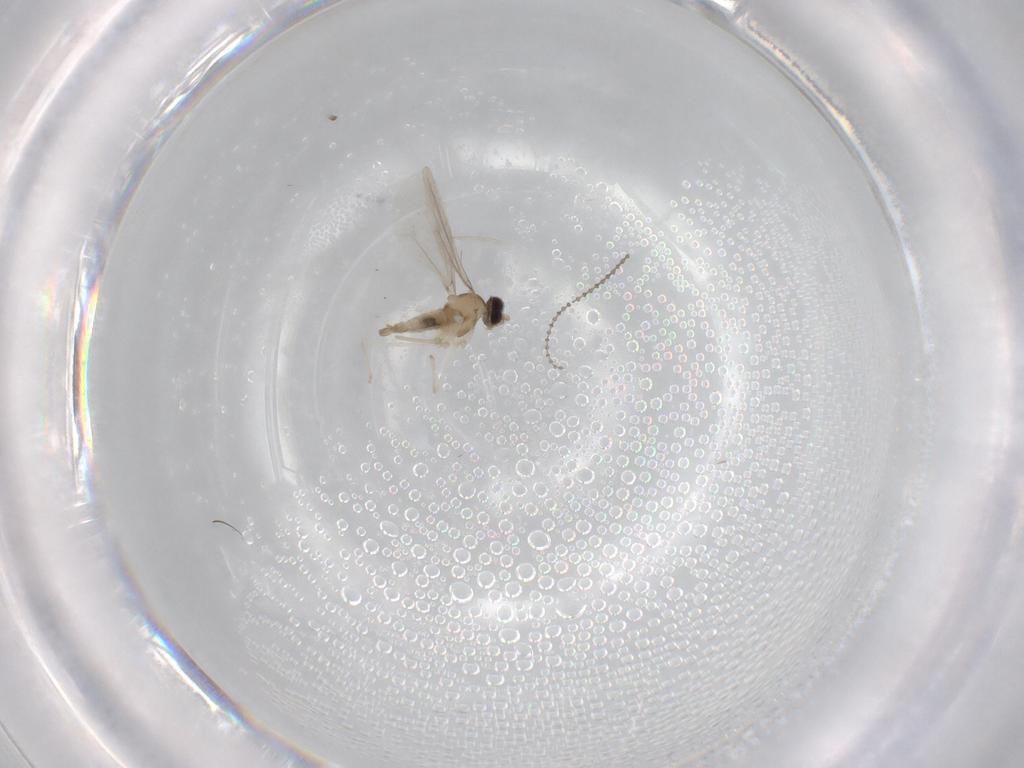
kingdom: Animalia
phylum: Arthropoda
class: Insecta
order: Diptera
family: Cecidomyiidae
